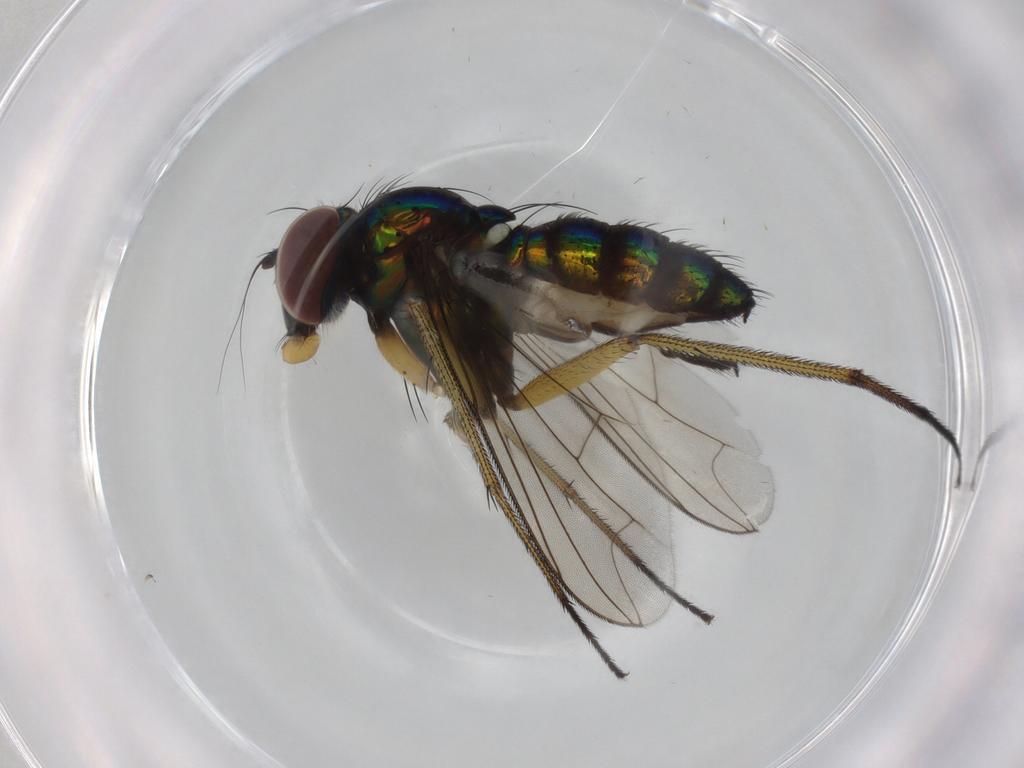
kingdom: Animalia
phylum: Arthropoda
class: Insecta
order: Diptera
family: Dolichopodidae
